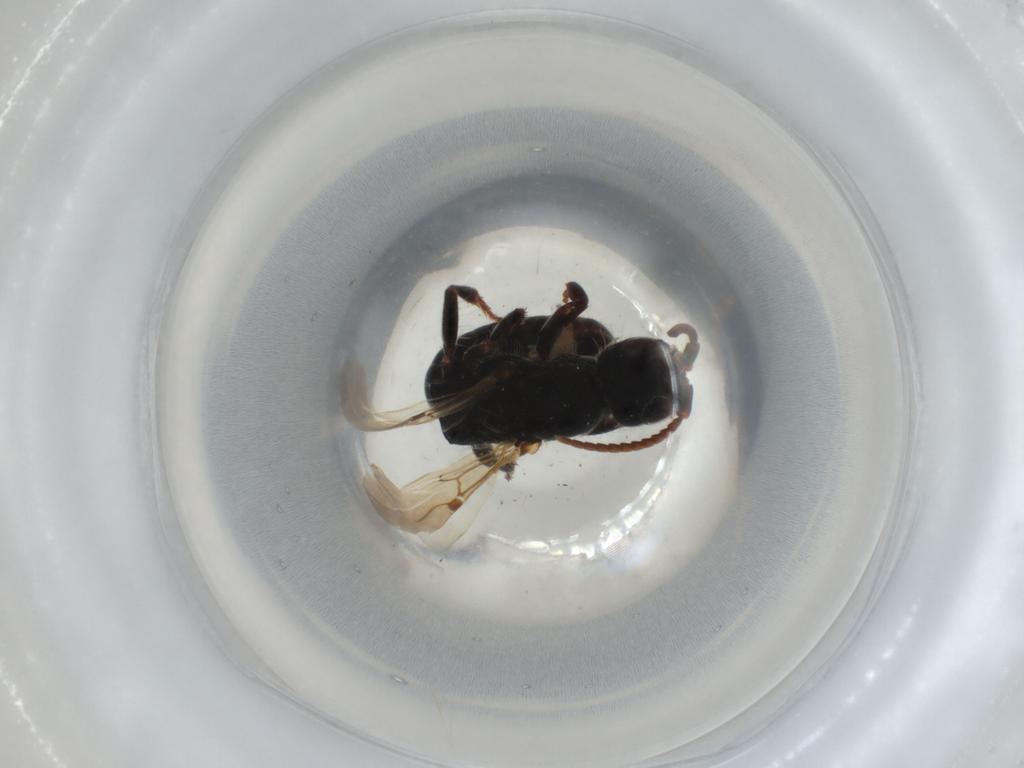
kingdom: Animalia
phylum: Arthropoda
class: Insecta
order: Hymenoptera
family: Bethylidae
